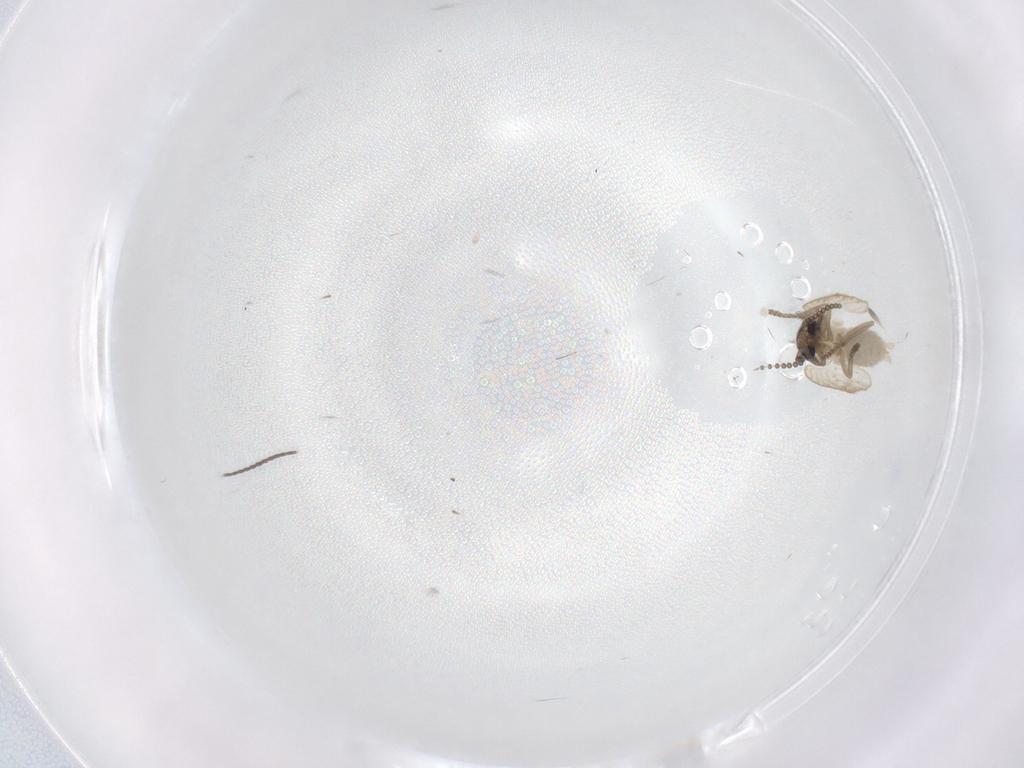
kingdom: Animalia
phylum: Arthropoda
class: Insecta
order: Diptera
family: Psychodidae
